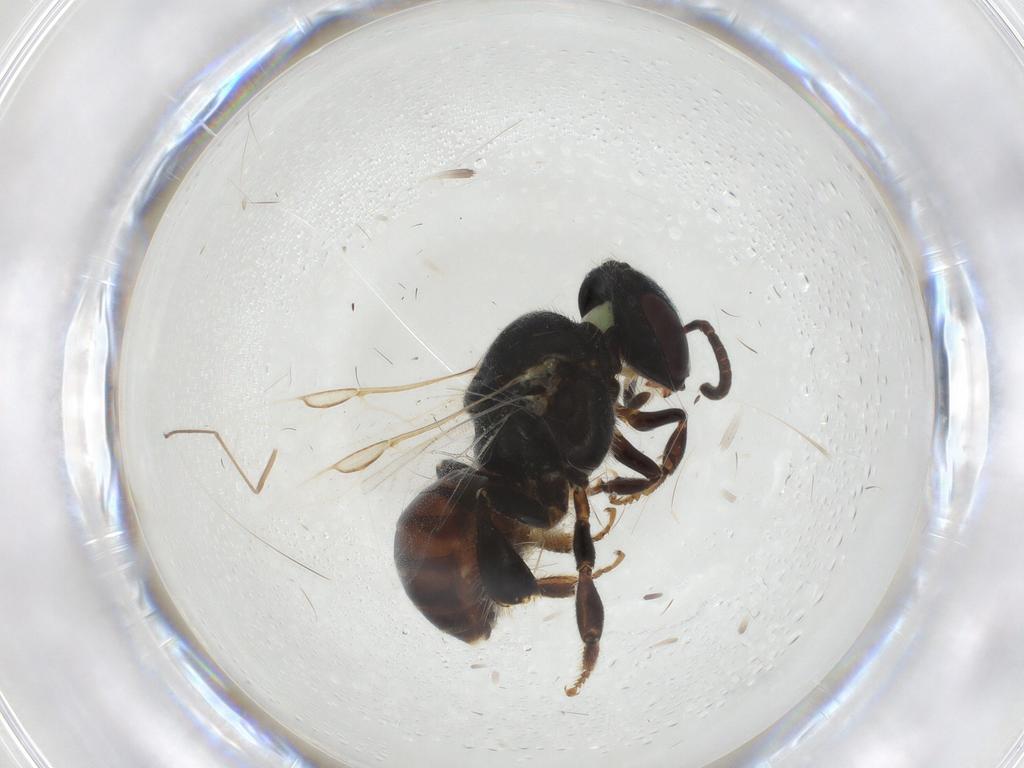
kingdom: Animalia
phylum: Arthropoda
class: Insecta
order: Hymenoptera
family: Apidae
